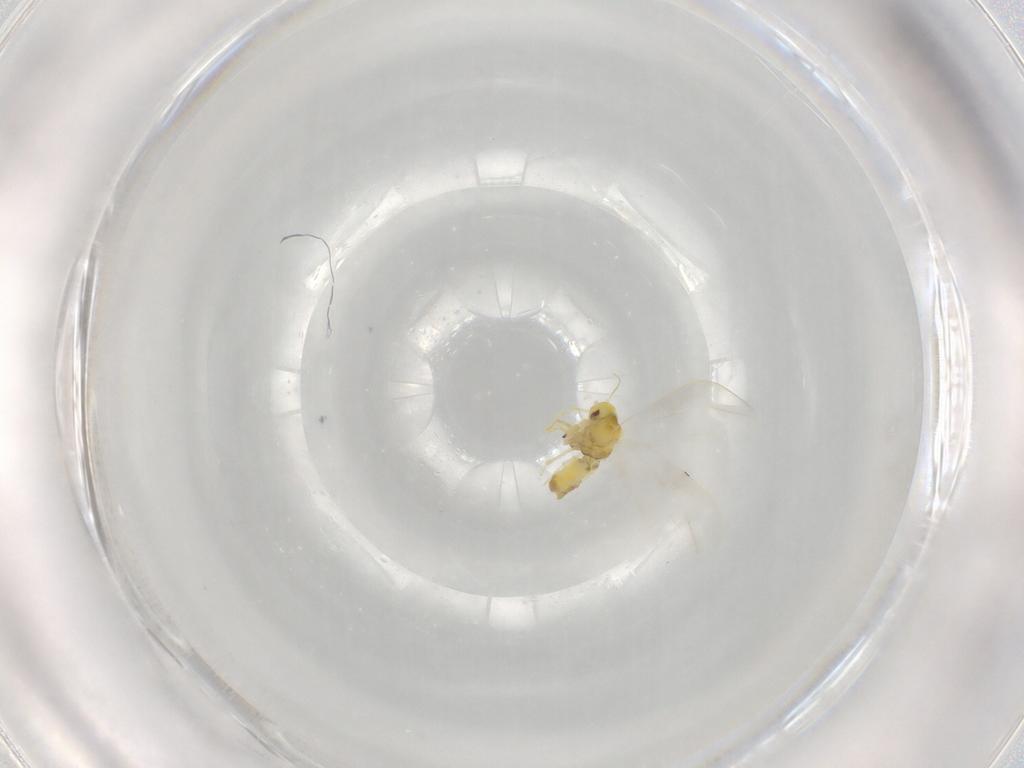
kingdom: Animalia
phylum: Arthropoda
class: Insecta
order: Hemiptera
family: Aleyrodidae
